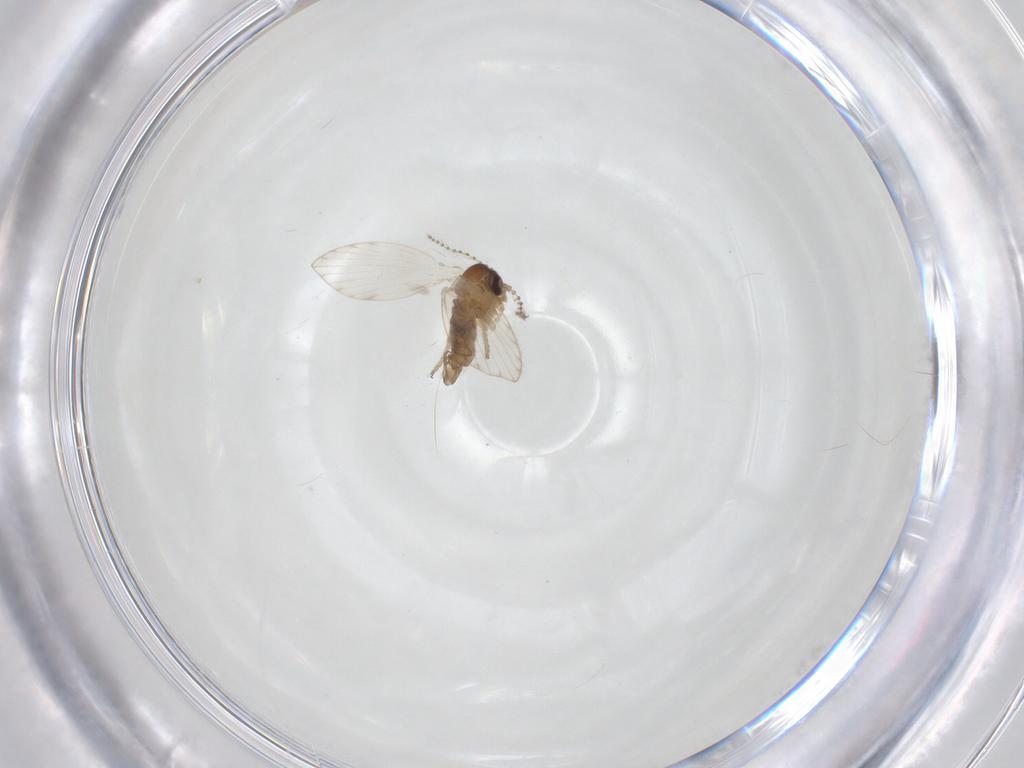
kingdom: Animalia
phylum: Arthropoda
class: Insecta
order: Diptera
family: Psychodidae
